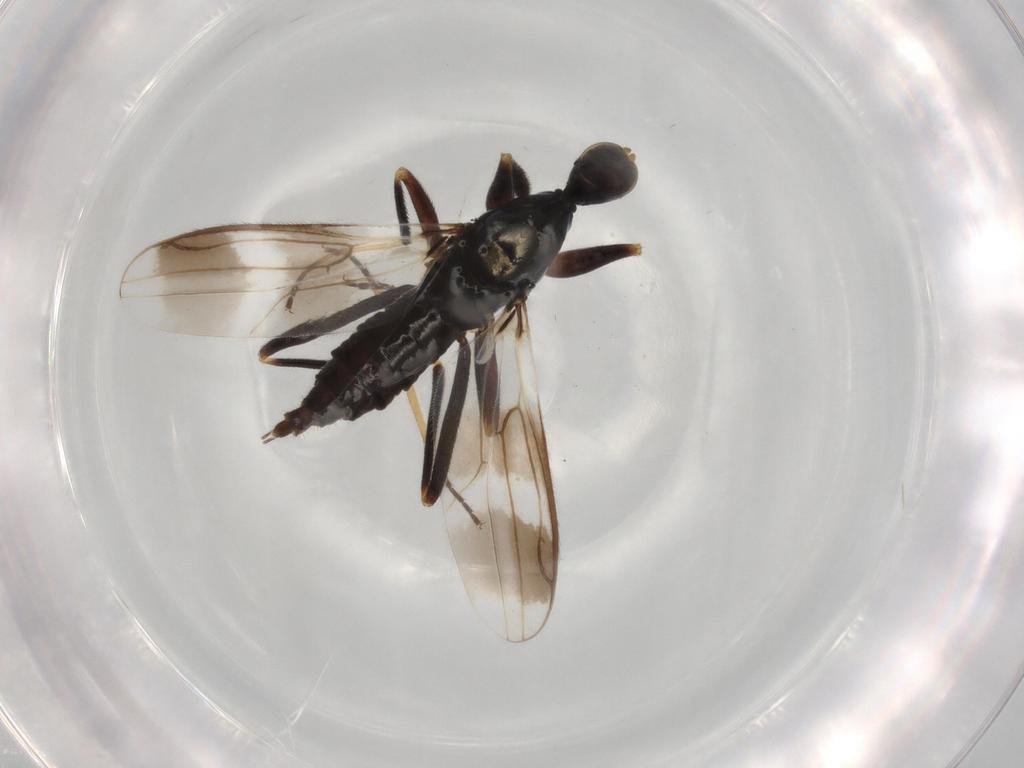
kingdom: Animalia
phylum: Arthropoda
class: Insecta
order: Diptera
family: Hybotidae
